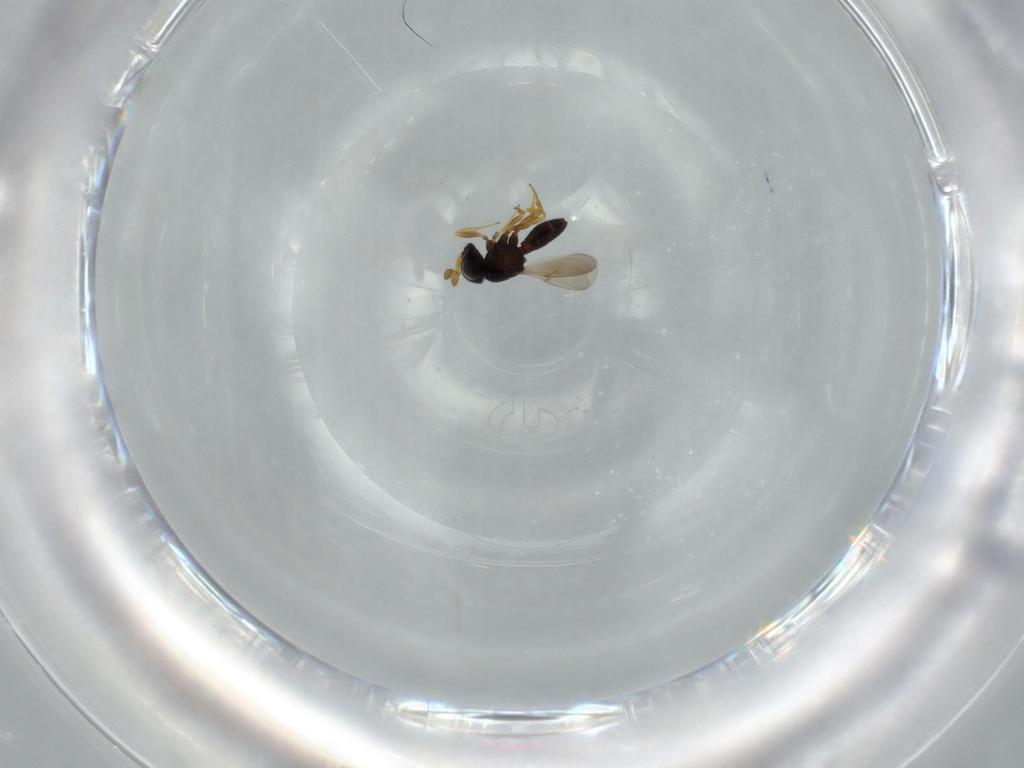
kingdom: Animalia
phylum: Arthropoda
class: Insecta
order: Hymenoptera
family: Scelionidae
